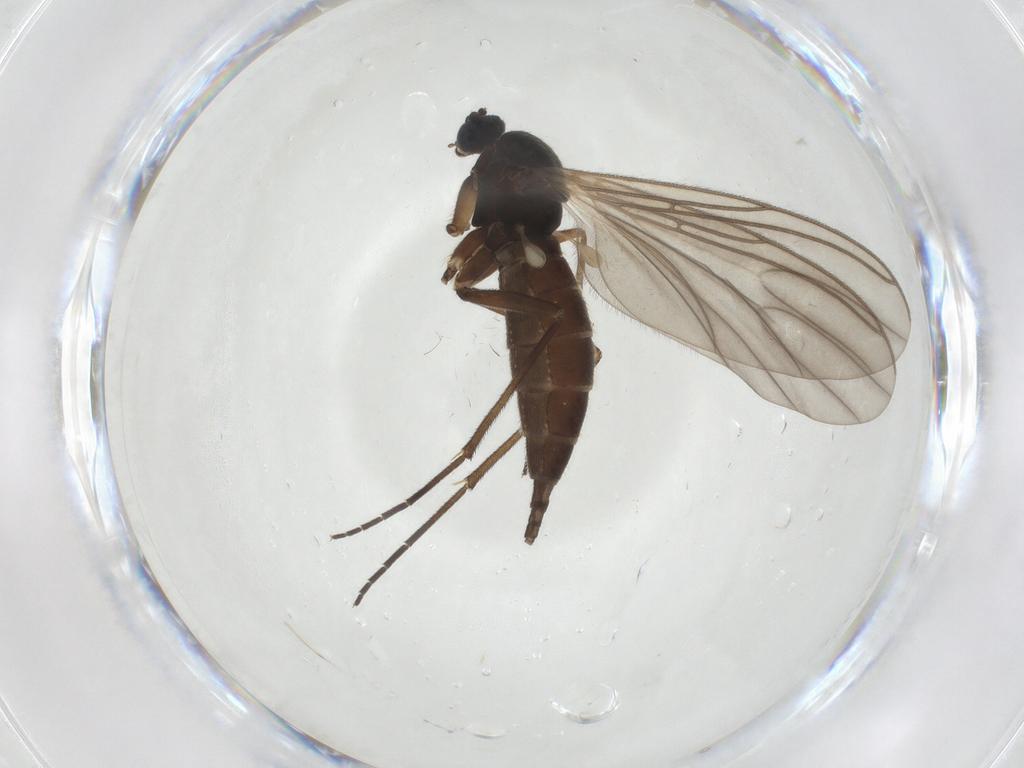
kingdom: Animalia
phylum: Arthropoda
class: Insecta
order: Diptera
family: Sciaridae
